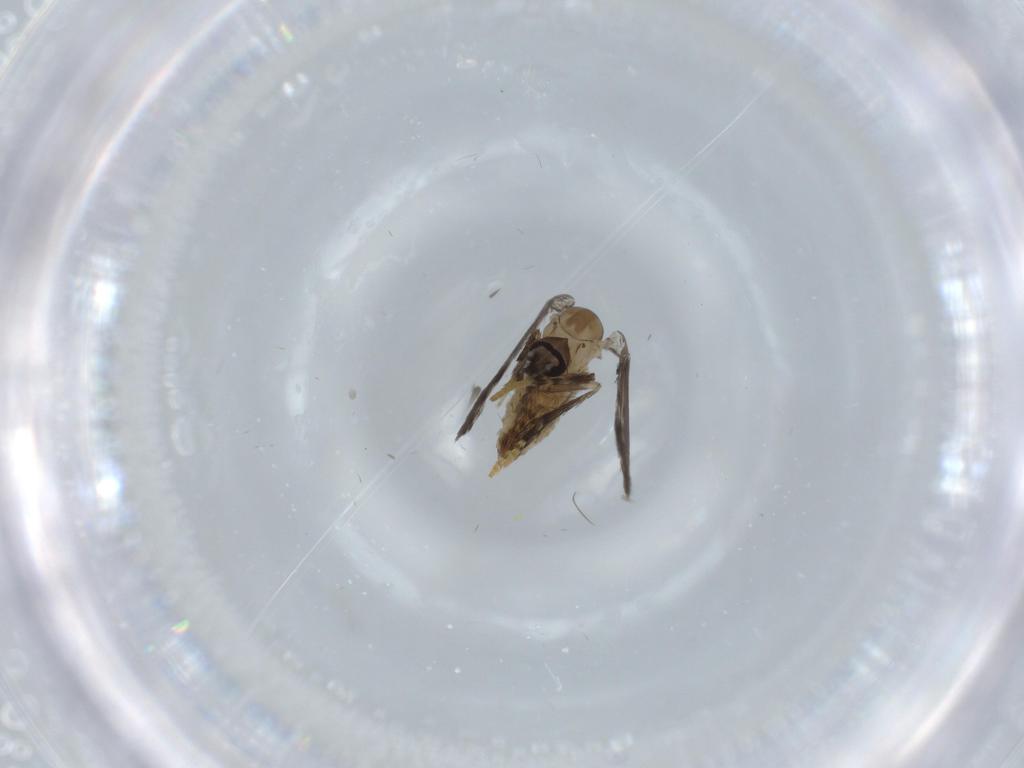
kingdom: Animalia
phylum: Arthropoda
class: Insecta
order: Diptera
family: Psychodidae
